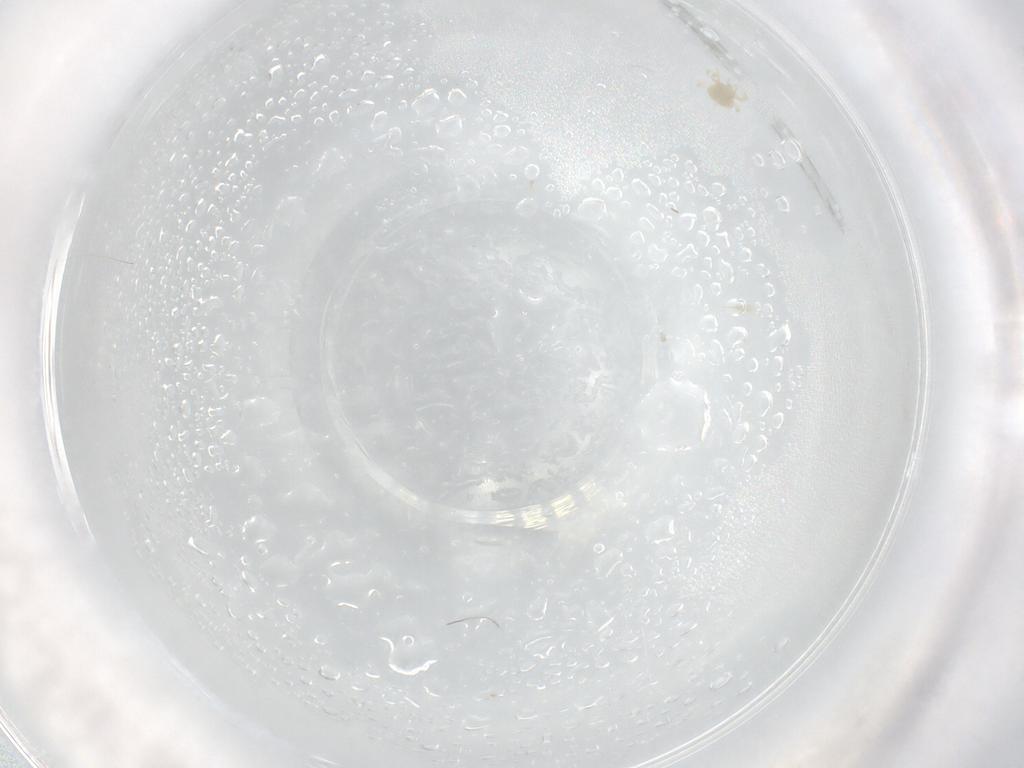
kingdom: Animalia
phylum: Arthropoda
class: Arachnida
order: Mesostigmata
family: Phytoseiidae
